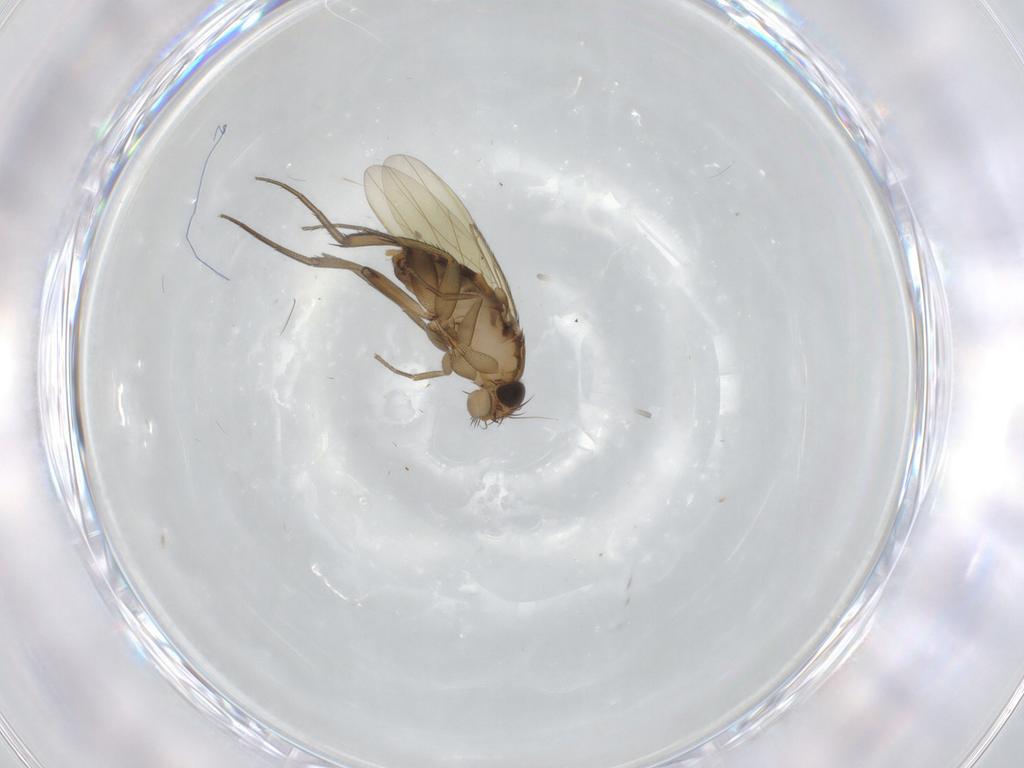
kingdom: Animalia
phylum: Arthropoda
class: Insecta
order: Diptera
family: Phoridae
